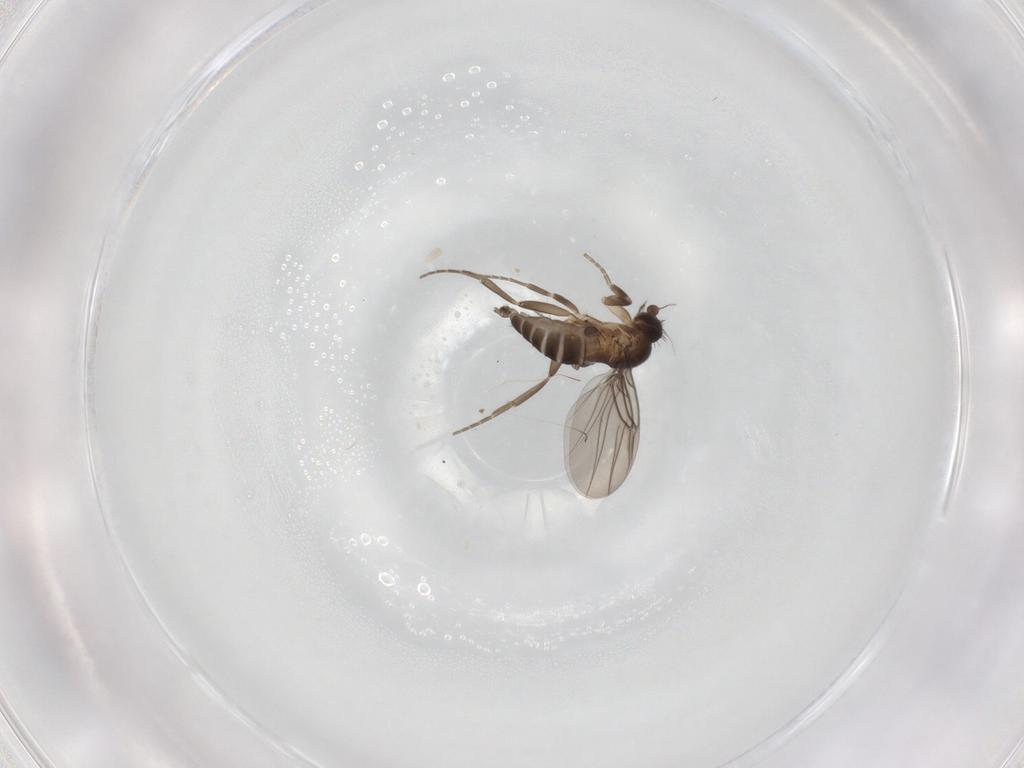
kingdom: Animalia
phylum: Arthropoda
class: Insecta
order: Diptera
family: Phoridae
